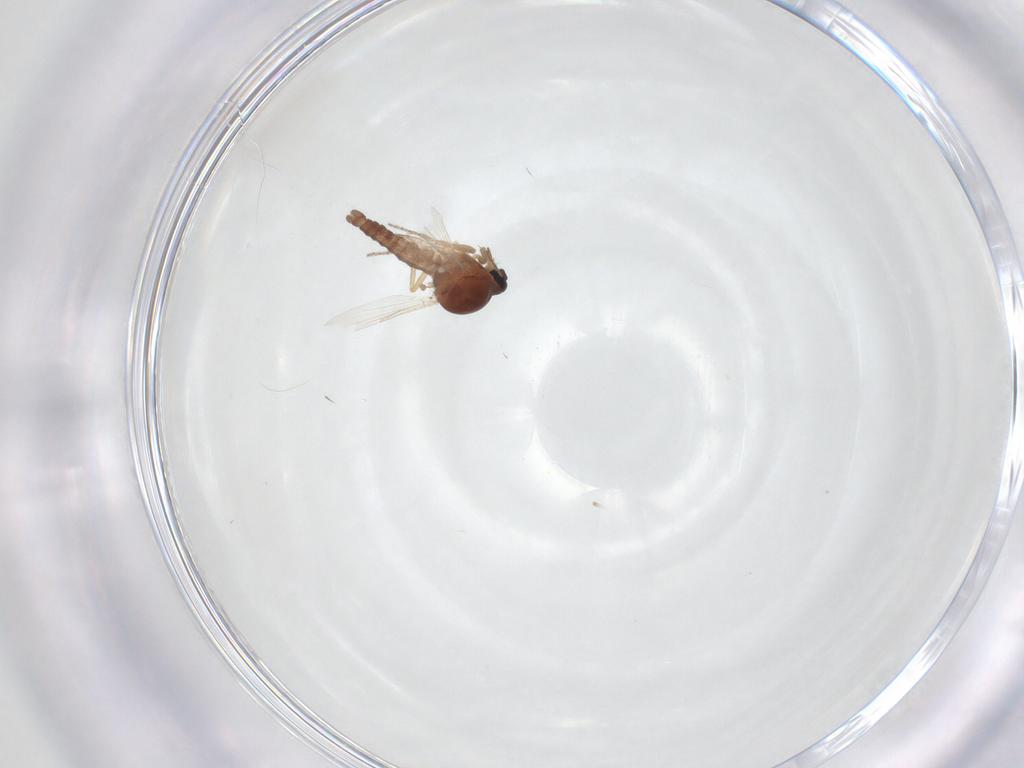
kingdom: Animalia
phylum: Arthropoda
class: Insecta
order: Diptera
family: Ceratopogonidae
